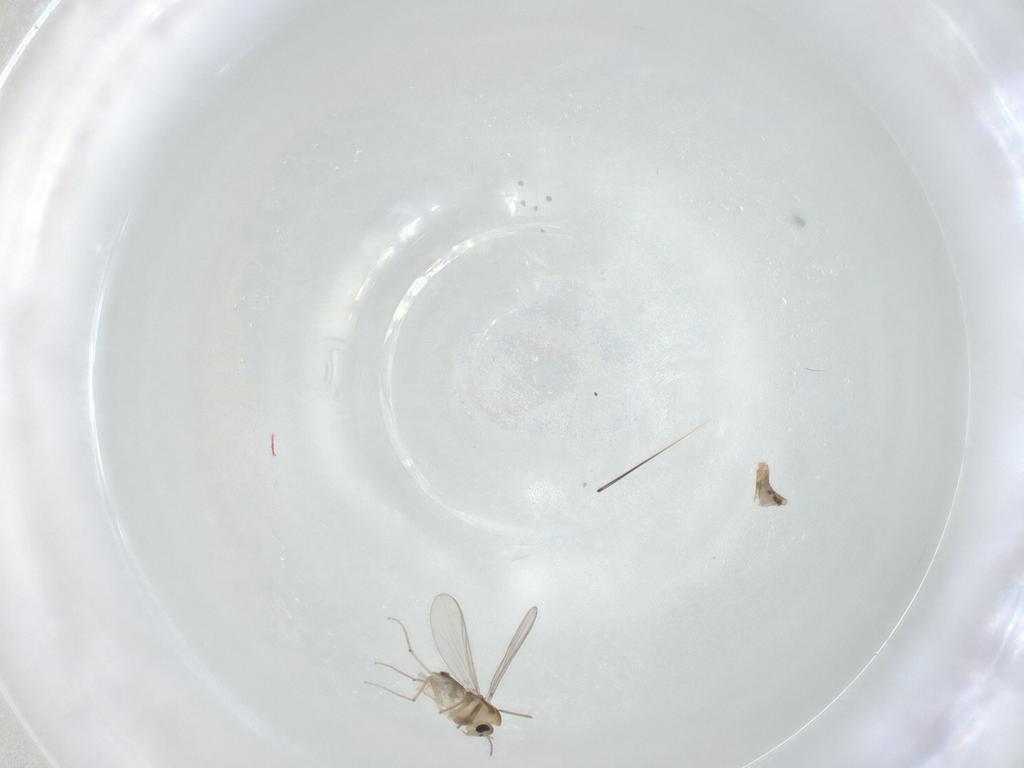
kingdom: Animalia
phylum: Arthropoda
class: Insecta
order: Diptera
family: Chironomidae
